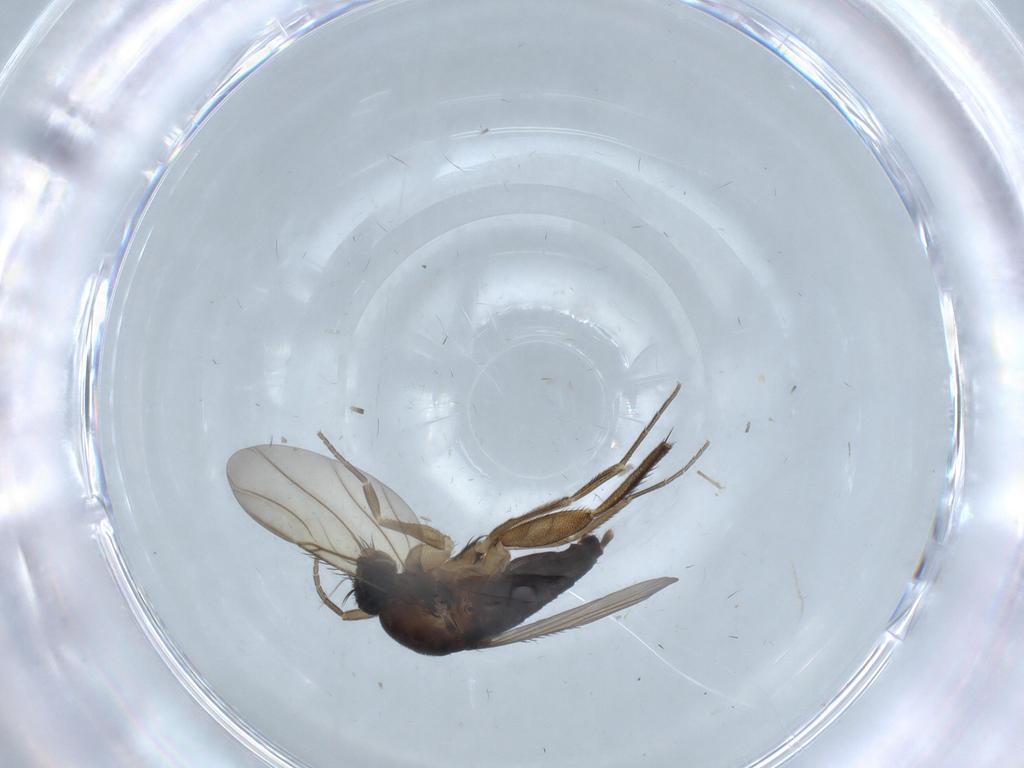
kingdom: Animalia
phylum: Arthropoda
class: Insecta
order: Diptera
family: Phoridae
